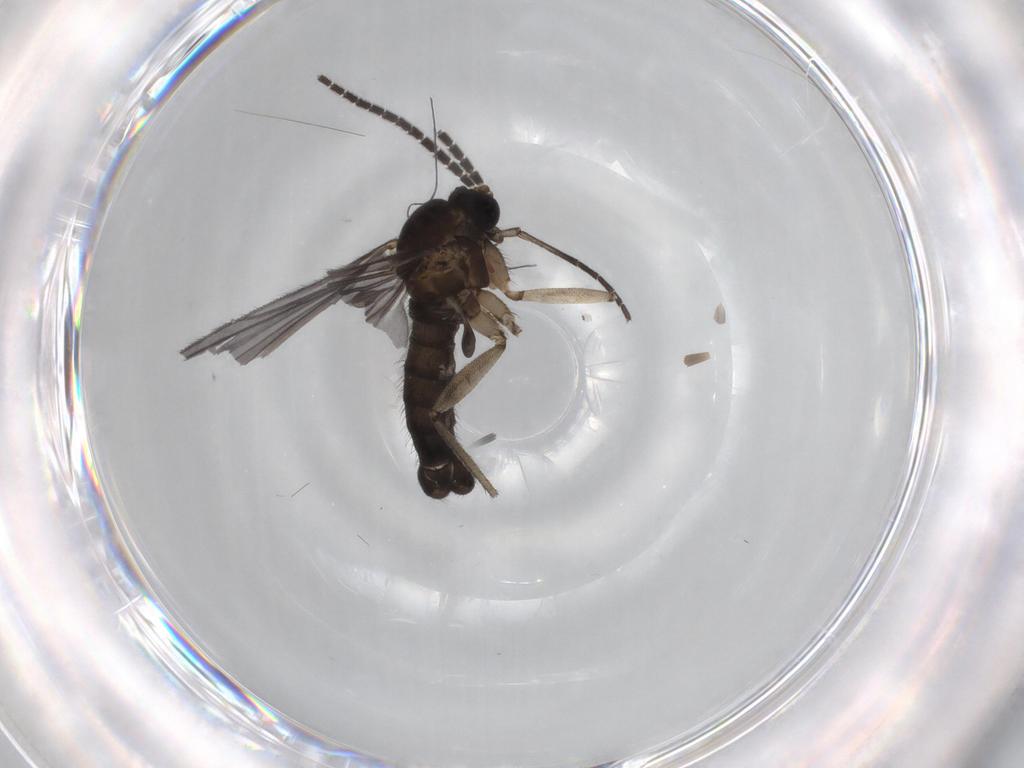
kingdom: Animalia
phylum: Arthropoda
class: Insecta
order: Diptera
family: Sciaridae
